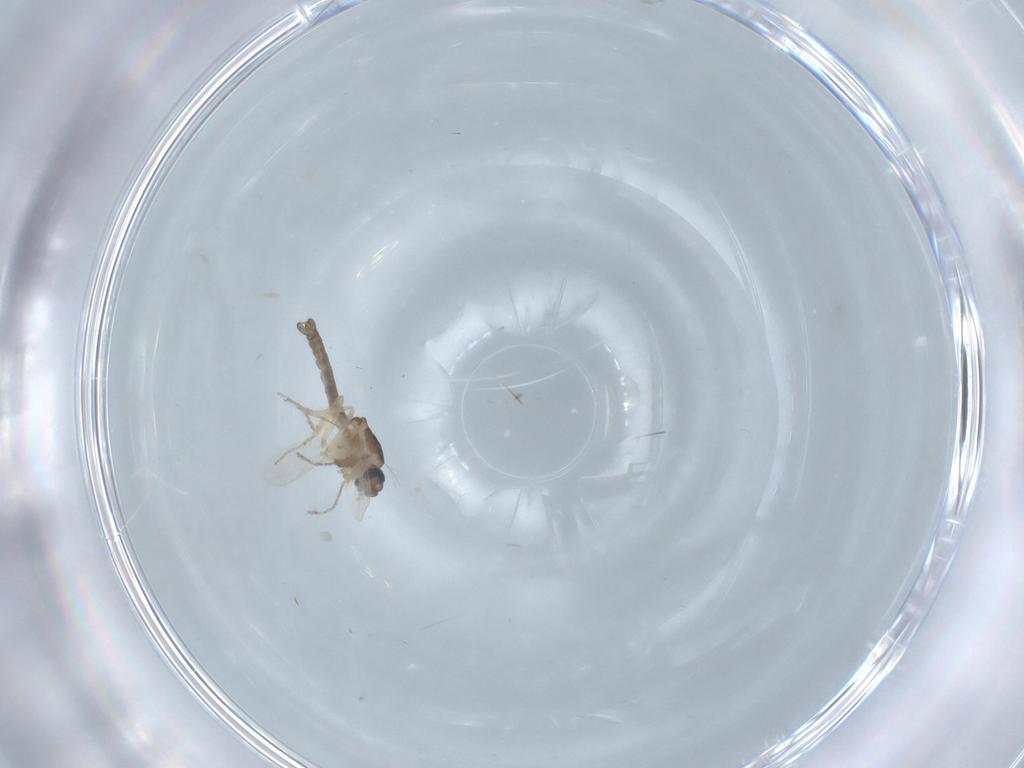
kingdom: Animalia
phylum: Arthropoda
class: Insecta
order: Diptera
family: Ceratopogonidae
